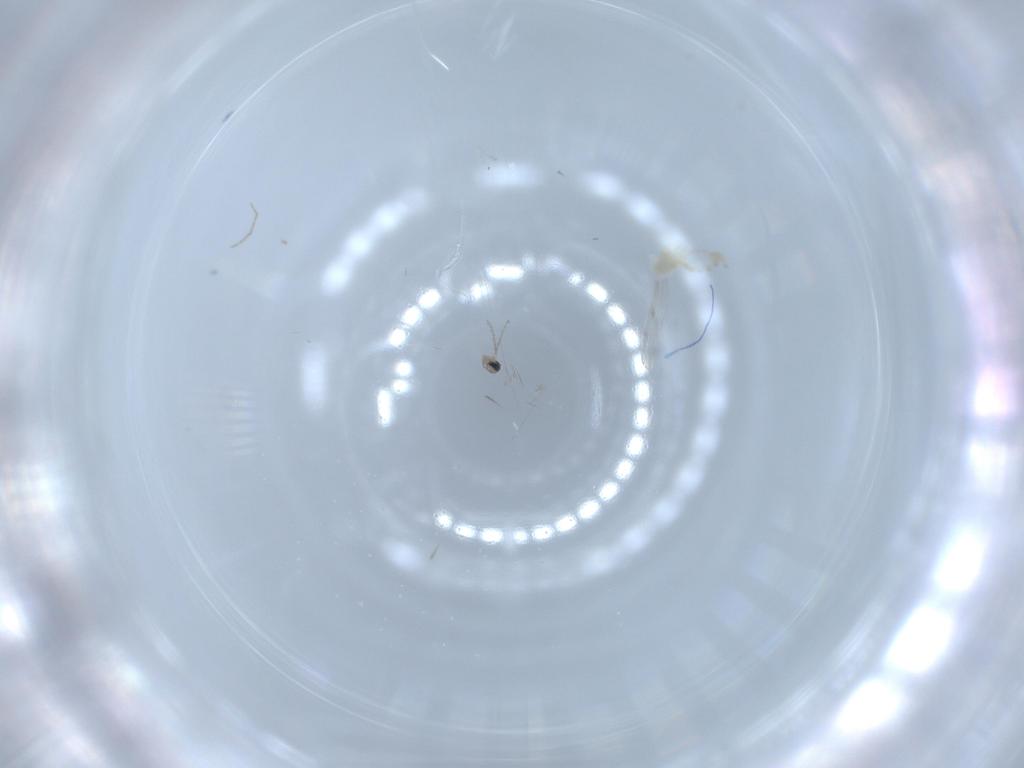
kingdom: Animalia
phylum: Arthropoda
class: Insecta
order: Diptera
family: Cecidomyiidae
